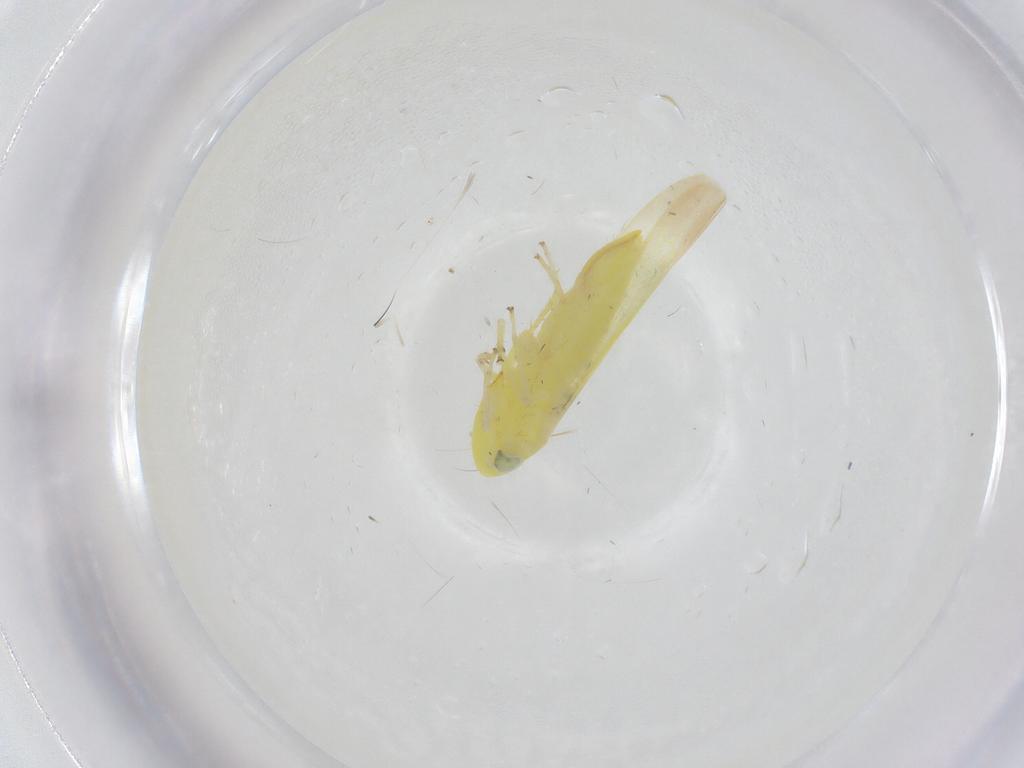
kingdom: Animalia
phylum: Arthropoda
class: Insecta
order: Hemiptera
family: Cicadellidae
